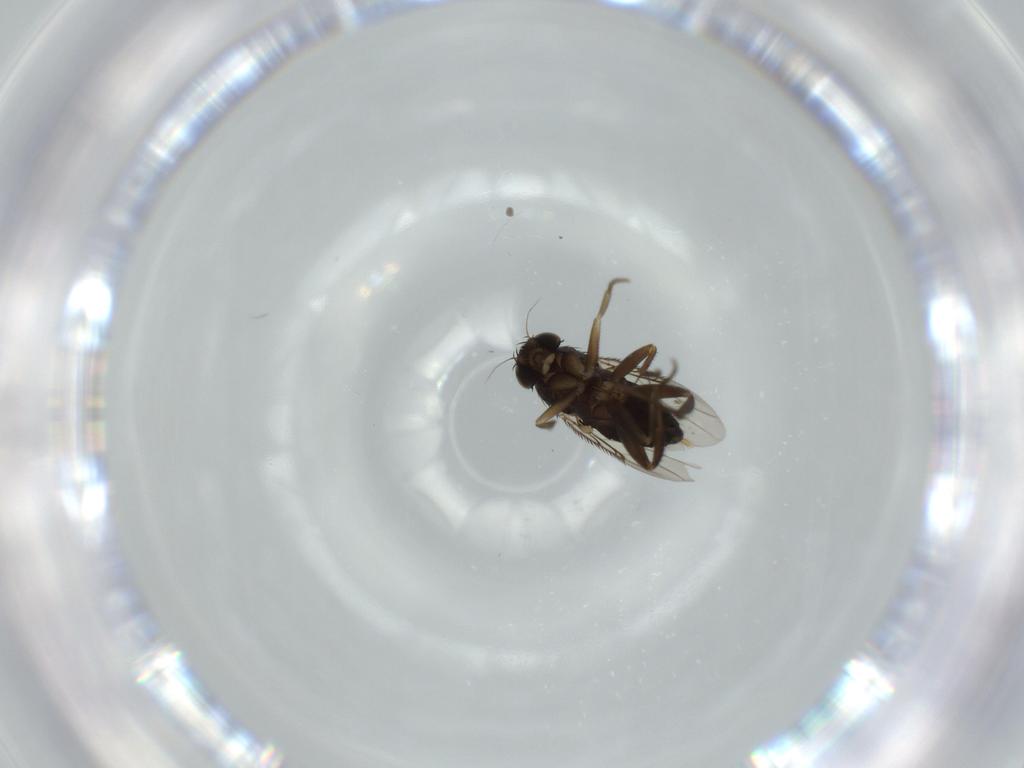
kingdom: Animalia
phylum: Arthropoda
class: Insecta
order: Diptera
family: Phoridae
